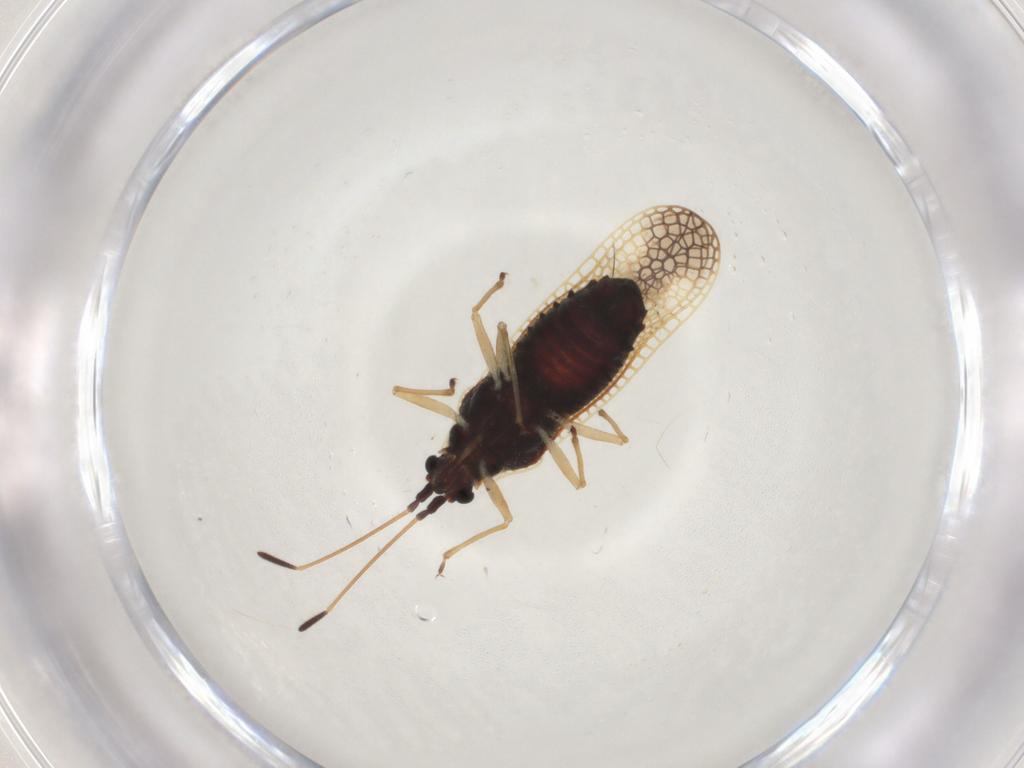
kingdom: Animalia
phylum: Arthropoda
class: Insecta
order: Hemiptera
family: Tingidae
